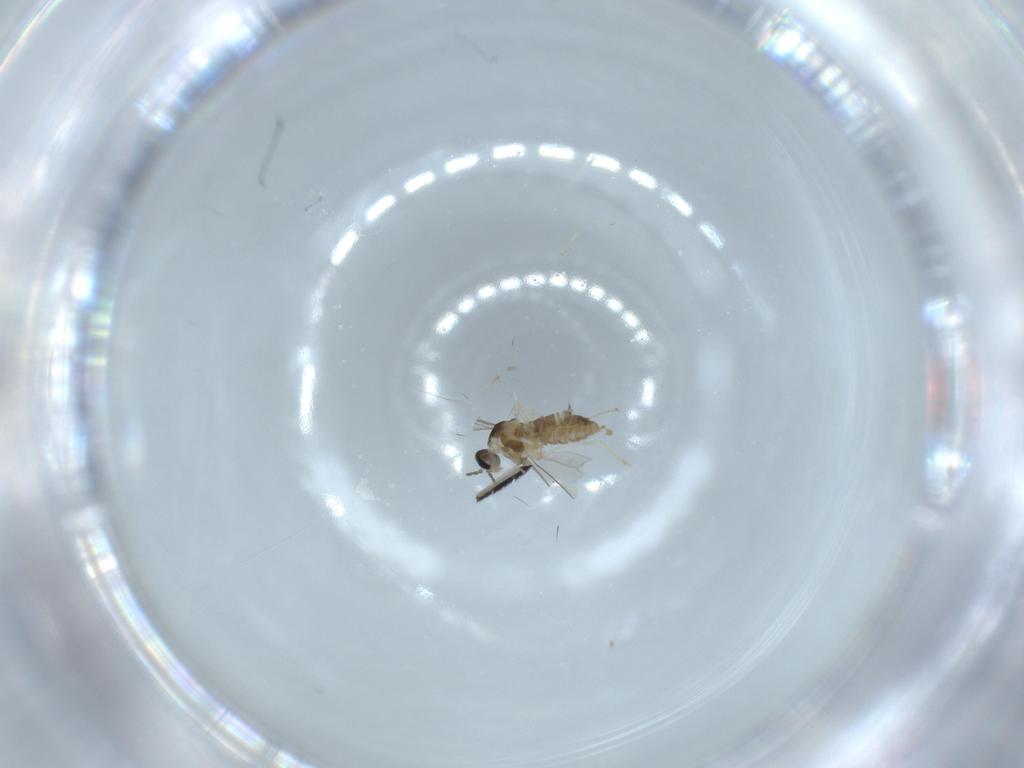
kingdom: Animalia
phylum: Arthropoda
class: Insecta
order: Diptera
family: Cecidomyiidae
